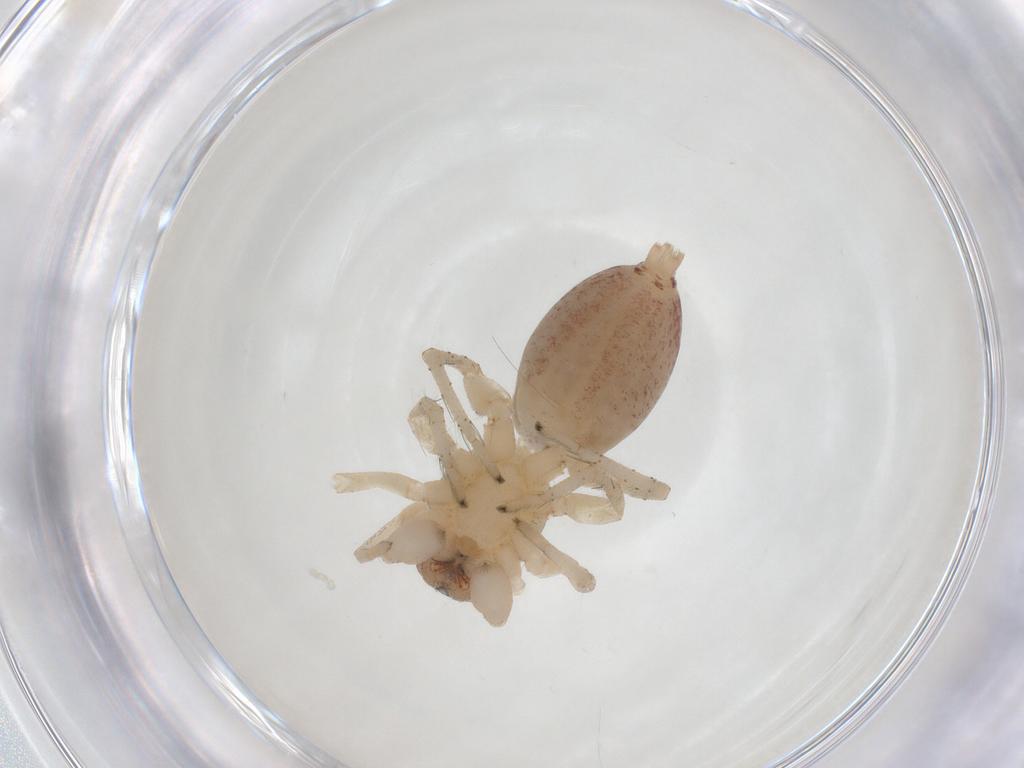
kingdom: Animalia
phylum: Arthropoda
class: Arachnida
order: Araneae
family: Clubionidae
